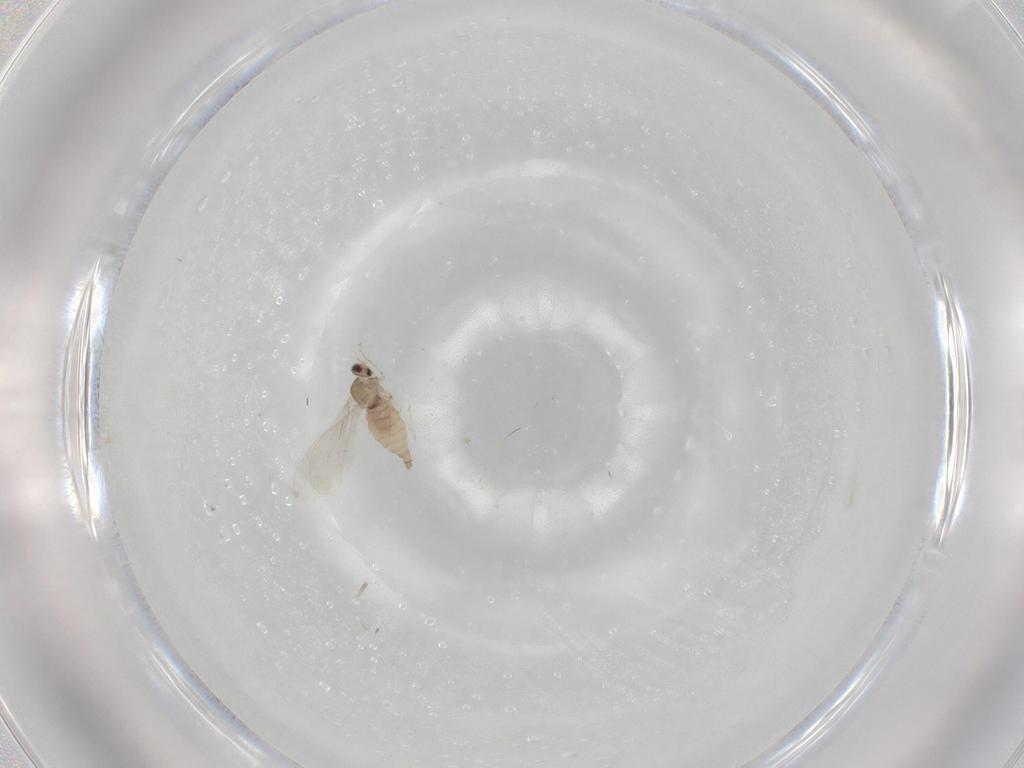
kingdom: Animalia
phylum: Arthropoda
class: Insecta
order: Diptera
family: Cecidomyiidae
